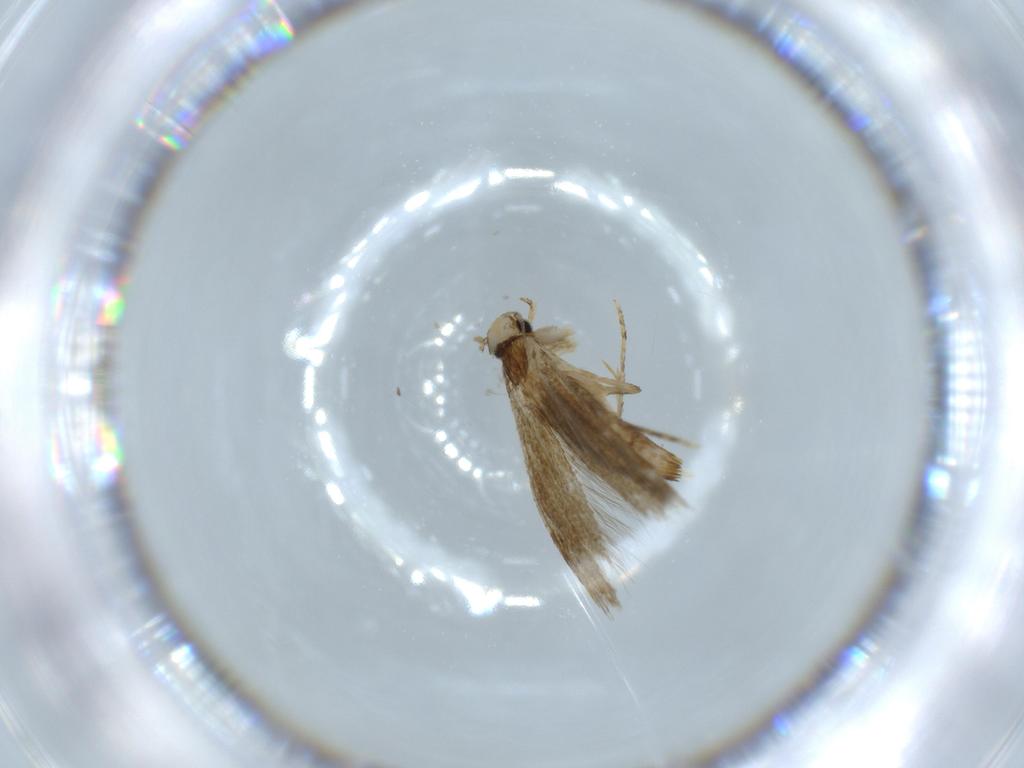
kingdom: Animalia
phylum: Arthropoda
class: Insecta
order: Lepidoptera
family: Tineidae
